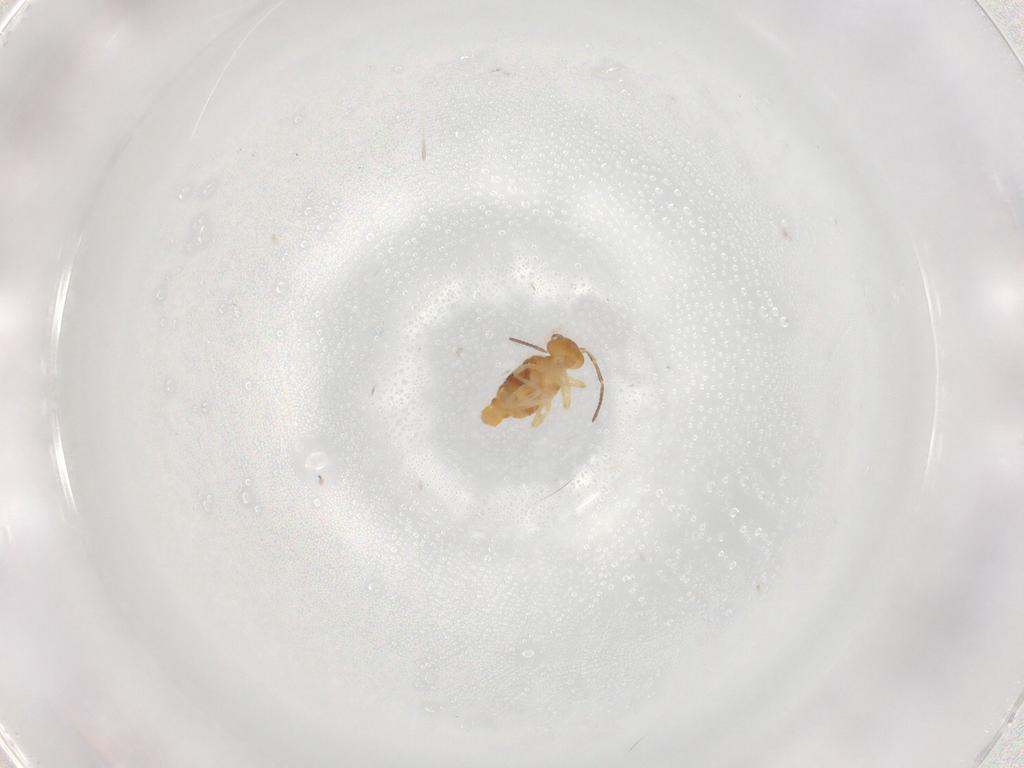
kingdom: Animalia
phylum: Arthropoda
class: Collembola
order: Symphypleona
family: Bourletiellidae
